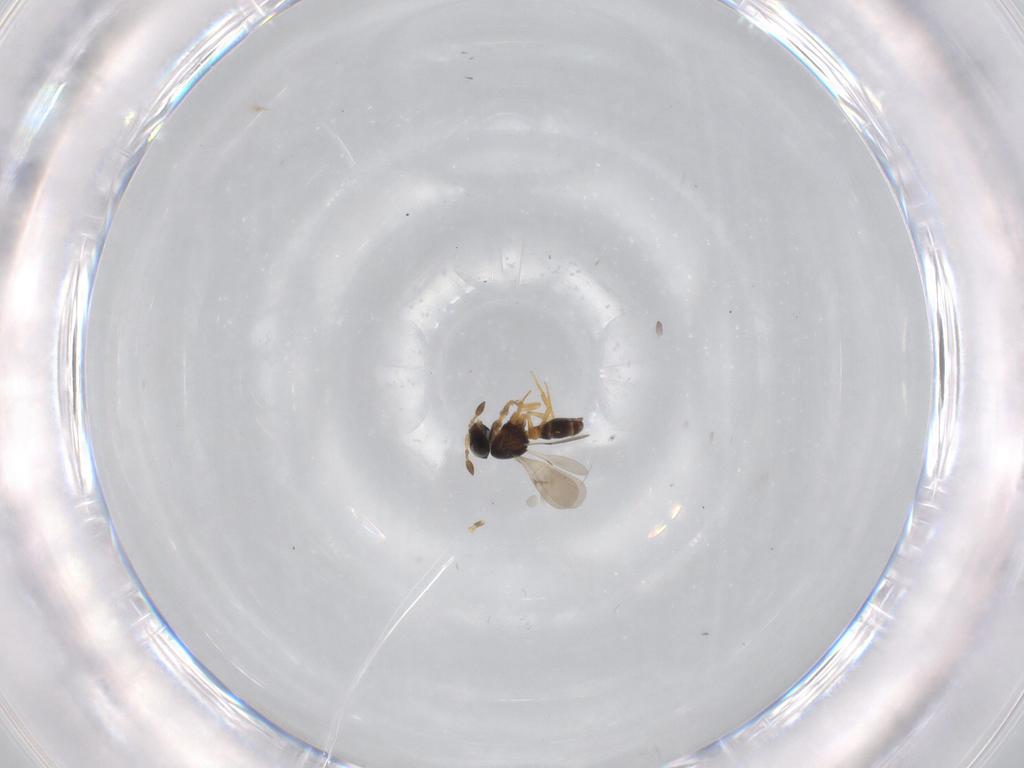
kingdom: Animalia
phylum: Arthropoda
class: Insecta
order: Hymenoptera
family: Scelionidae
